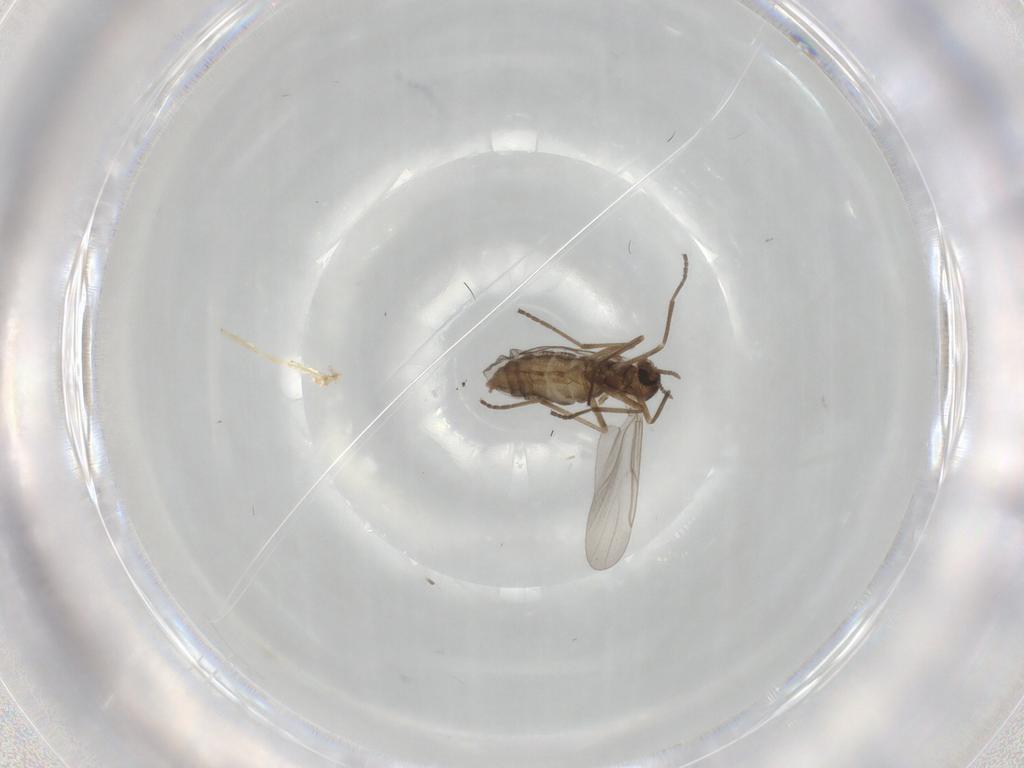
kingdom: Animalia
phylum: Arthropoda
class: Insecta
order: Diptera
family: Cecidomyiidae
